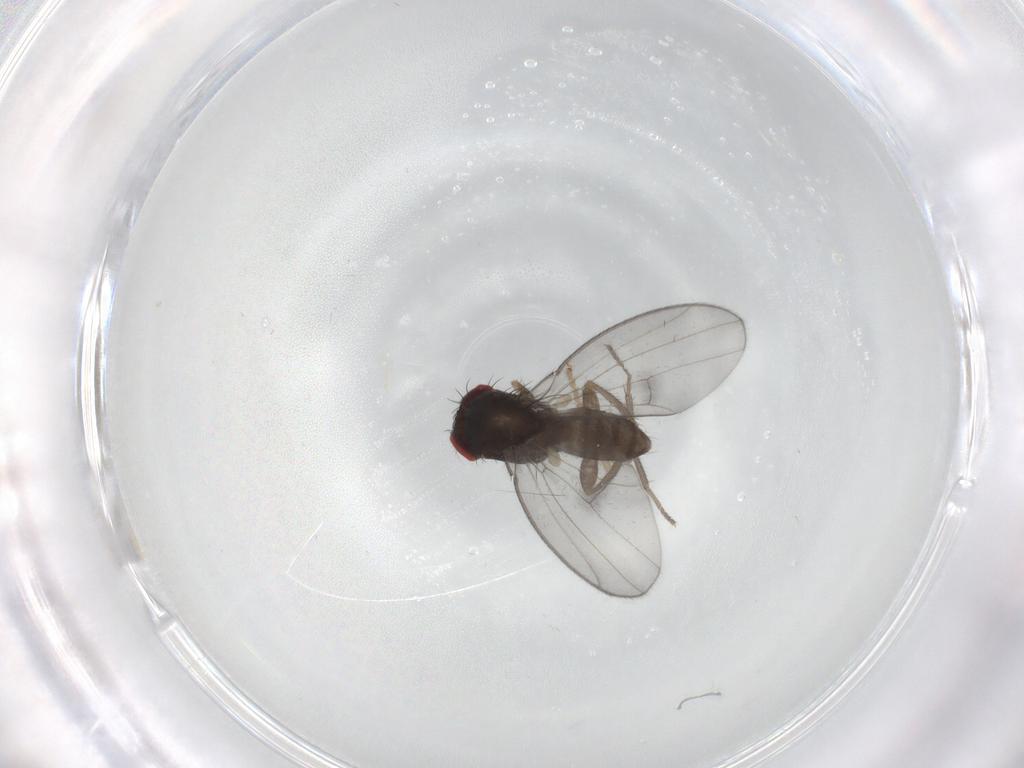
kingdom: Animalia
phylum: Arthropoda
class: Insecta
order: Diptera
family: Drosophilidae
